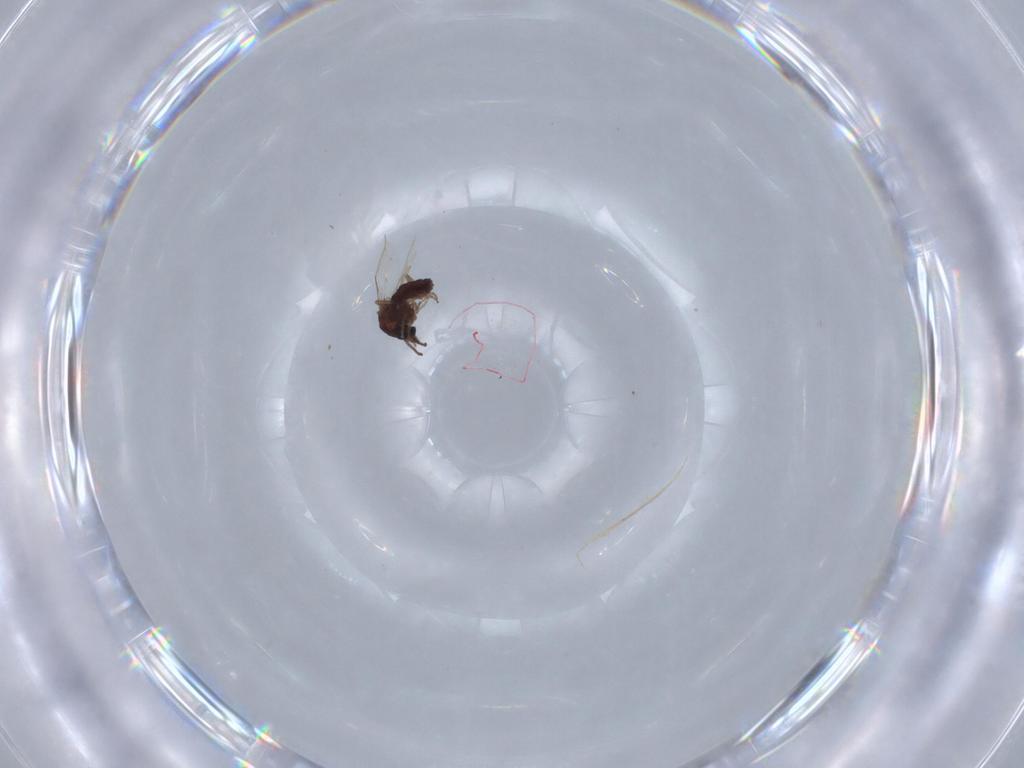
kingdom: Animalia
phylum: Arthropoda
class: Insecta
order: Diptera
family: Ceratopogonidae
